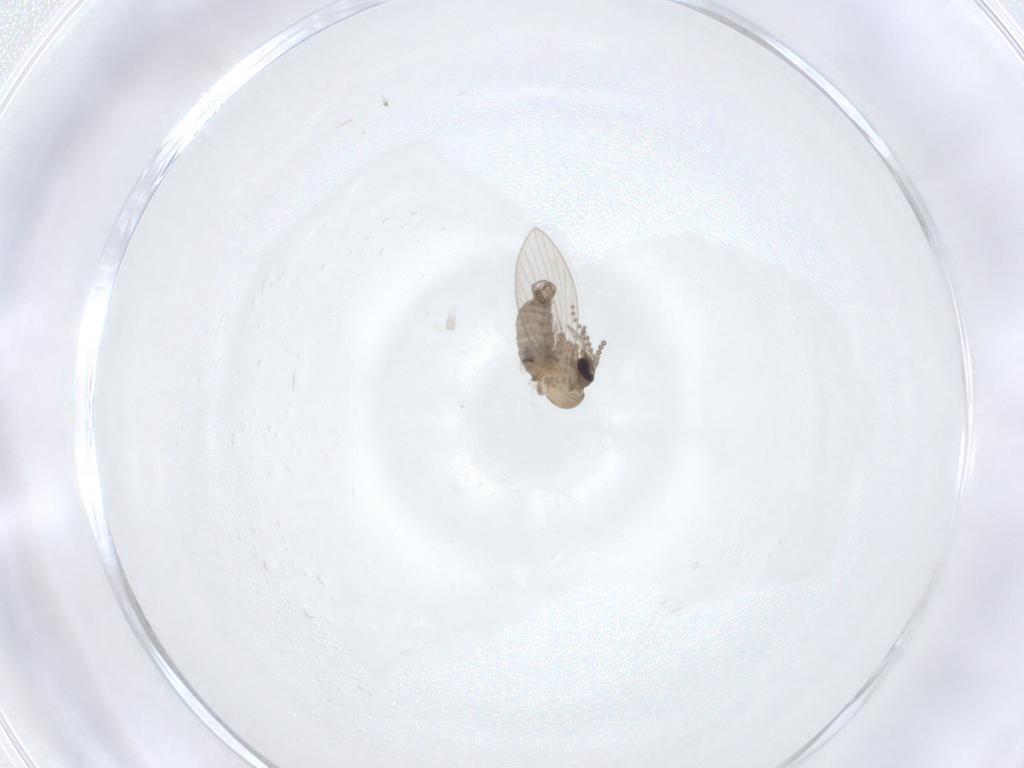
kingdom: Animalia
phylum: Arthropoda
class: Insecta
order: Diptera
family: Psychodidae
